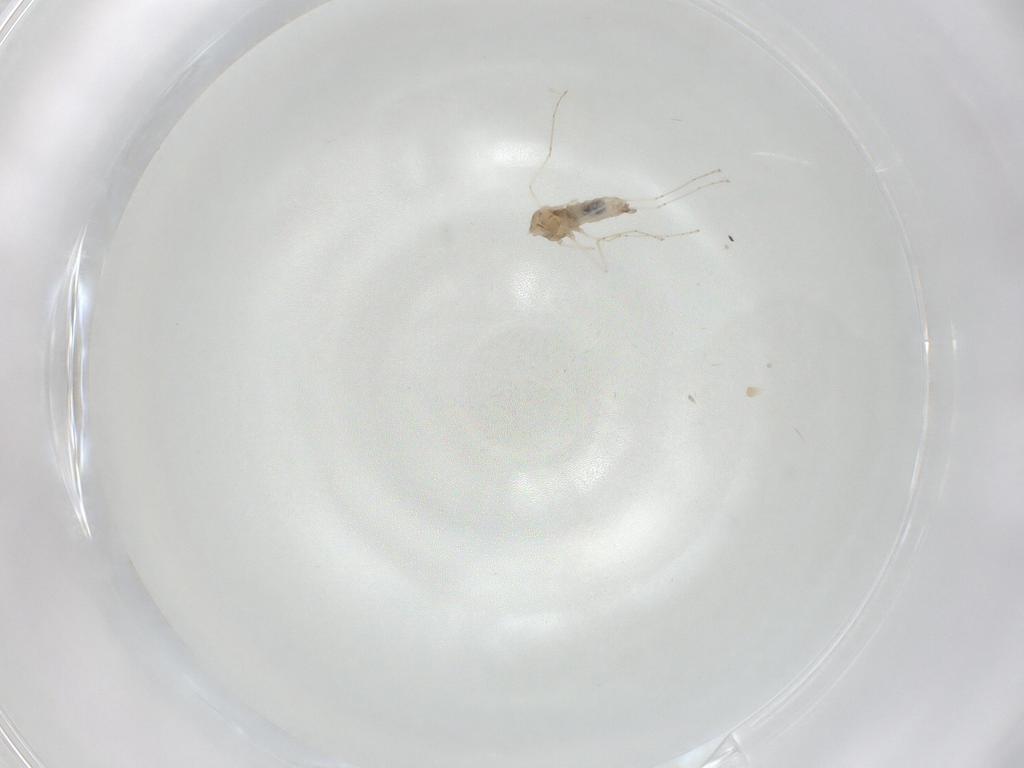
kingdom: Animalia
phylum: Arthropoda
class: Insecta
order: Diptera
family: Cecidomyiidae
